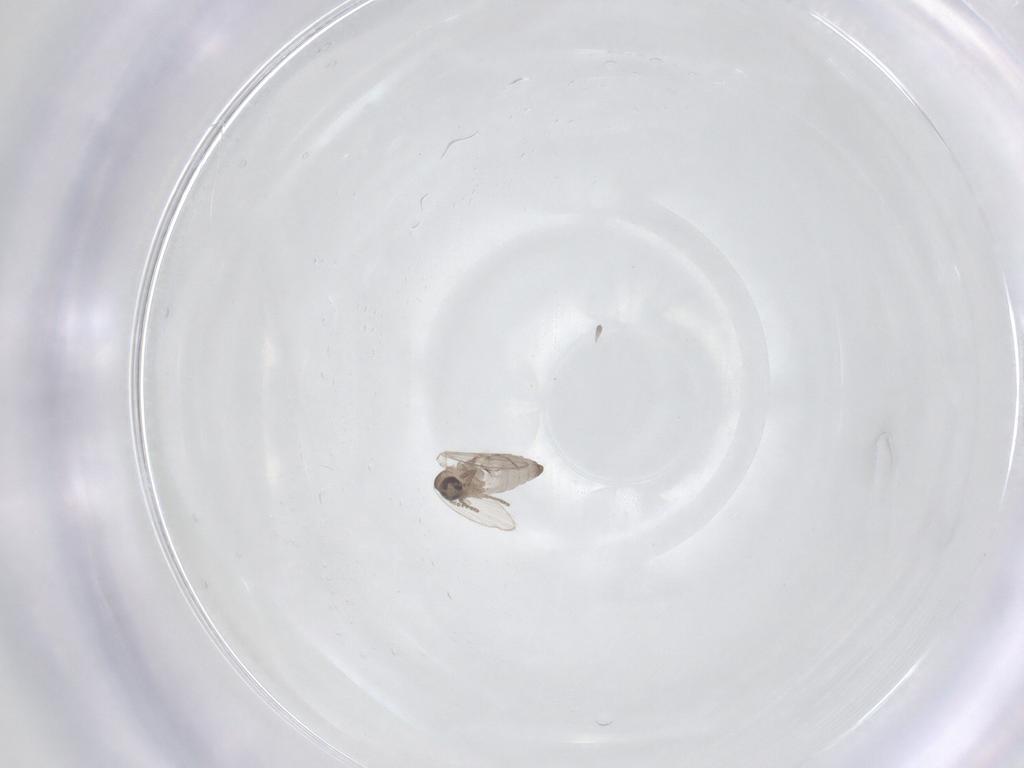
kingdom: Animalia
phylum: Arthropoda
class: Insecta
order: Diptera
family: Psychodidae
